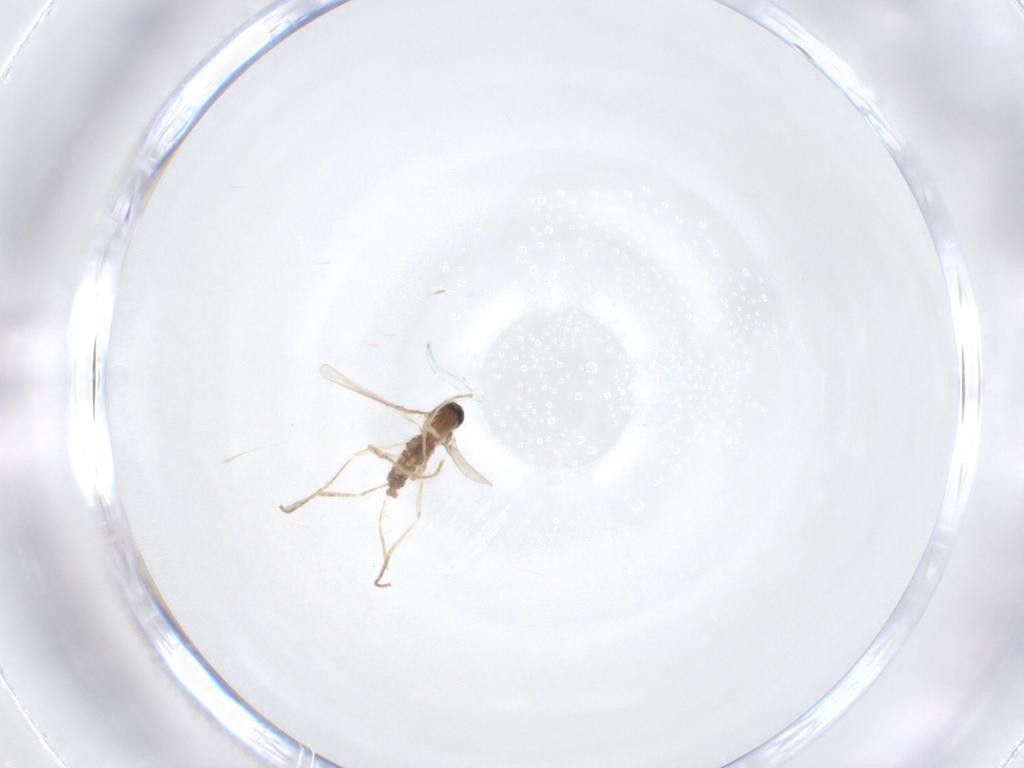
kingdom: Animalia
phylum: Arthropoda
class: Insecta
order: Diptera
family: Cecidomyiidae
